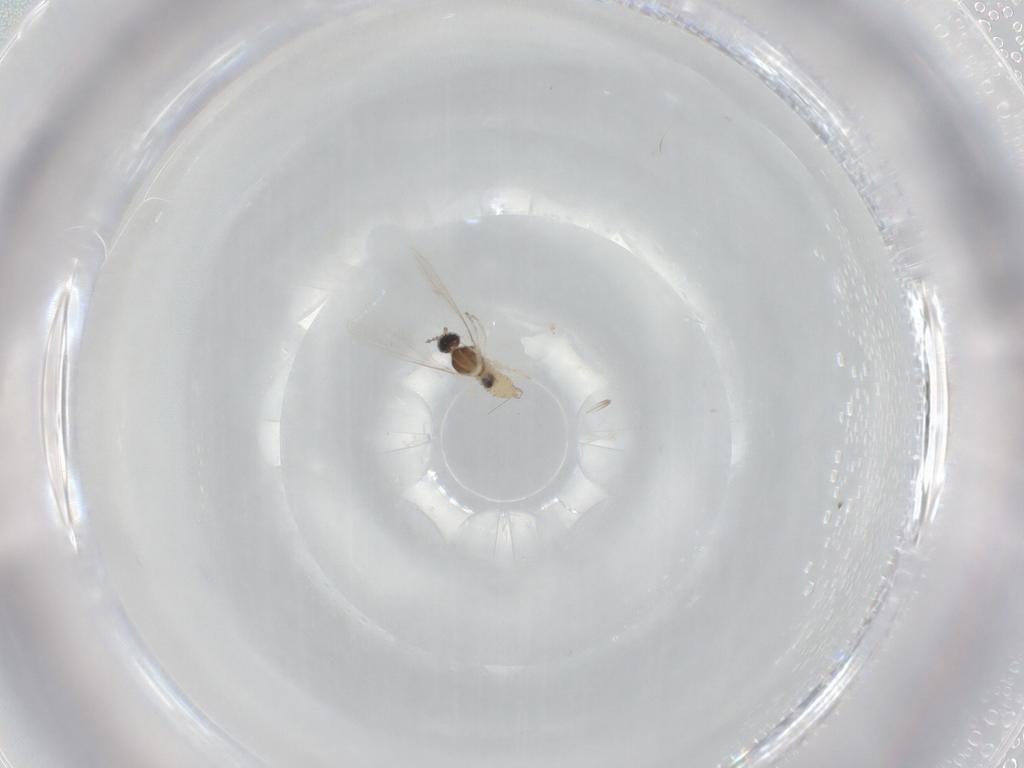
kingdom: Animalia
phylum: Arthropoda
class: Insecta
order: Diptera
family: Cecidomyiidae
